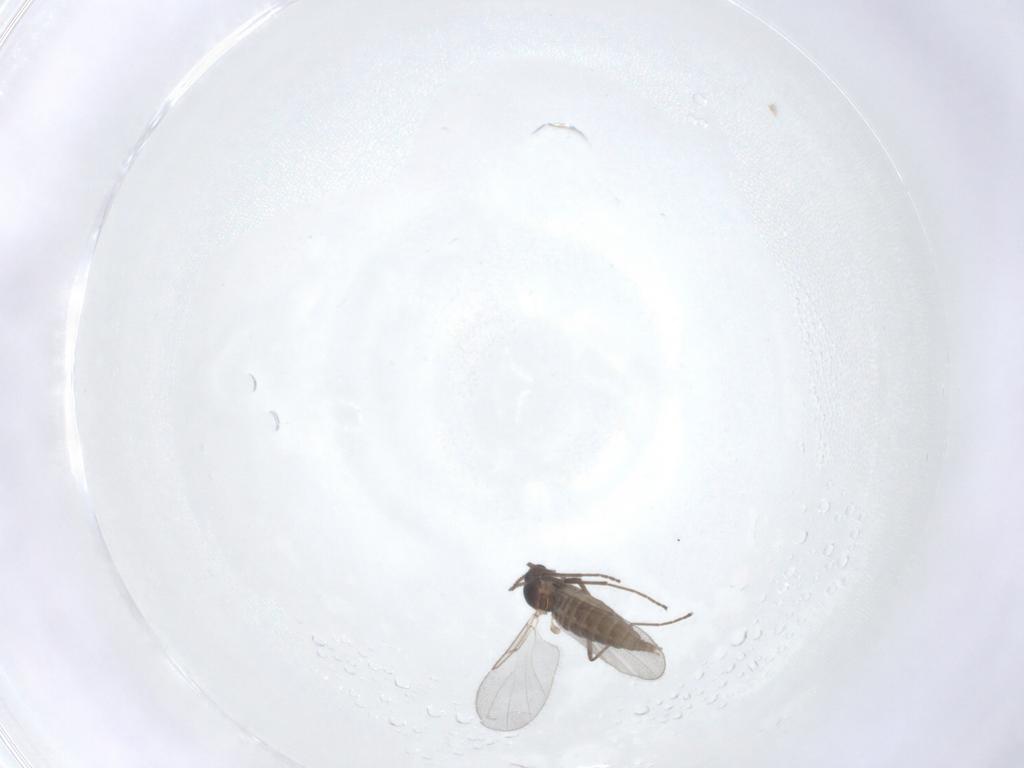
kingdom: Animalia
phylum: Arthropoda
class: Insecta
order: Diptera
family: Cecidomyiidae
